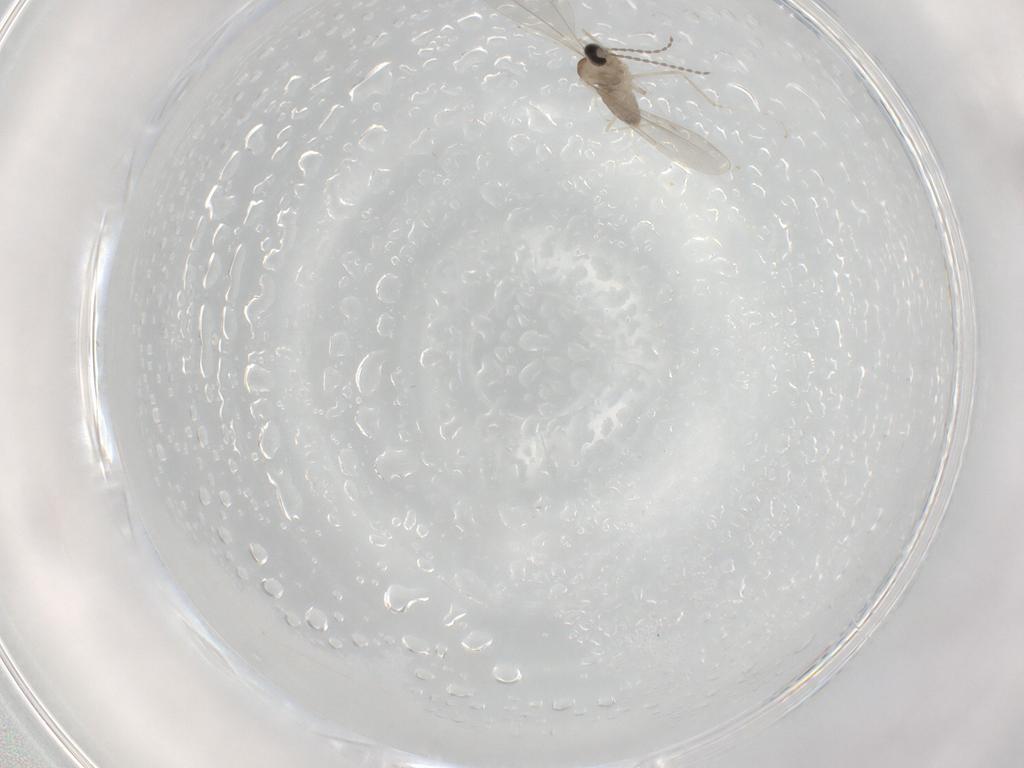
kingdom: Animalia
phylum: Arthropoda
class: Insecta
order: Diptera
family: Cecidomyiidae
